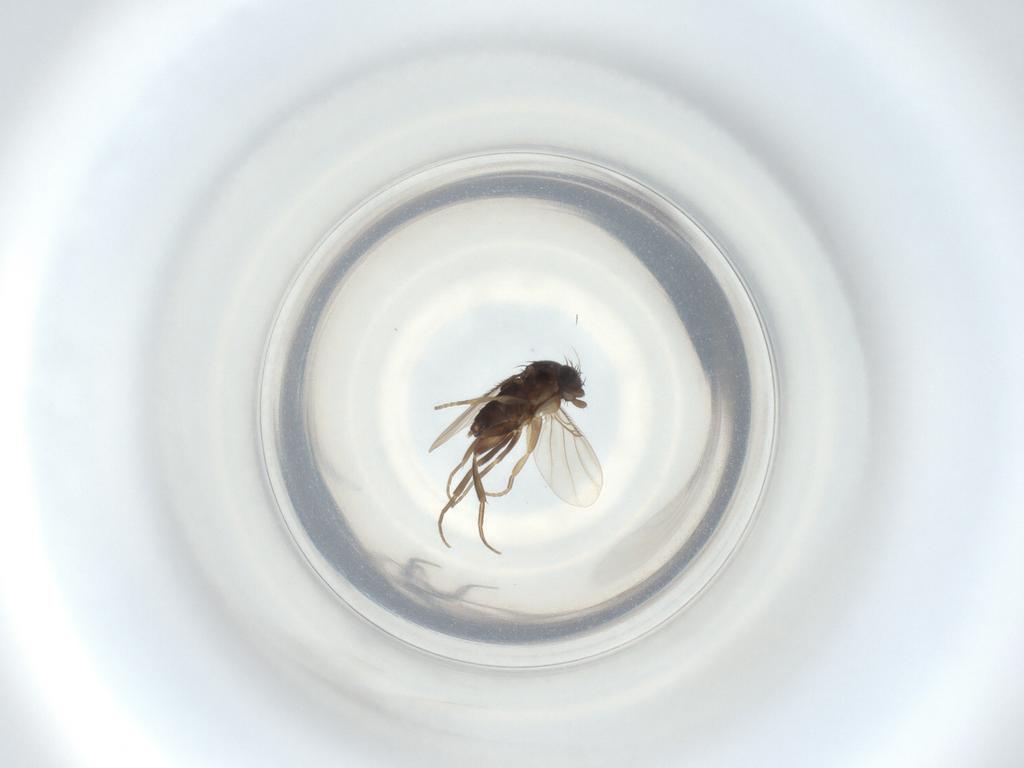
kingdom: Animalia
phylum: Arthropoda
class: Insecta
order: Diptera
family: Phoridae
